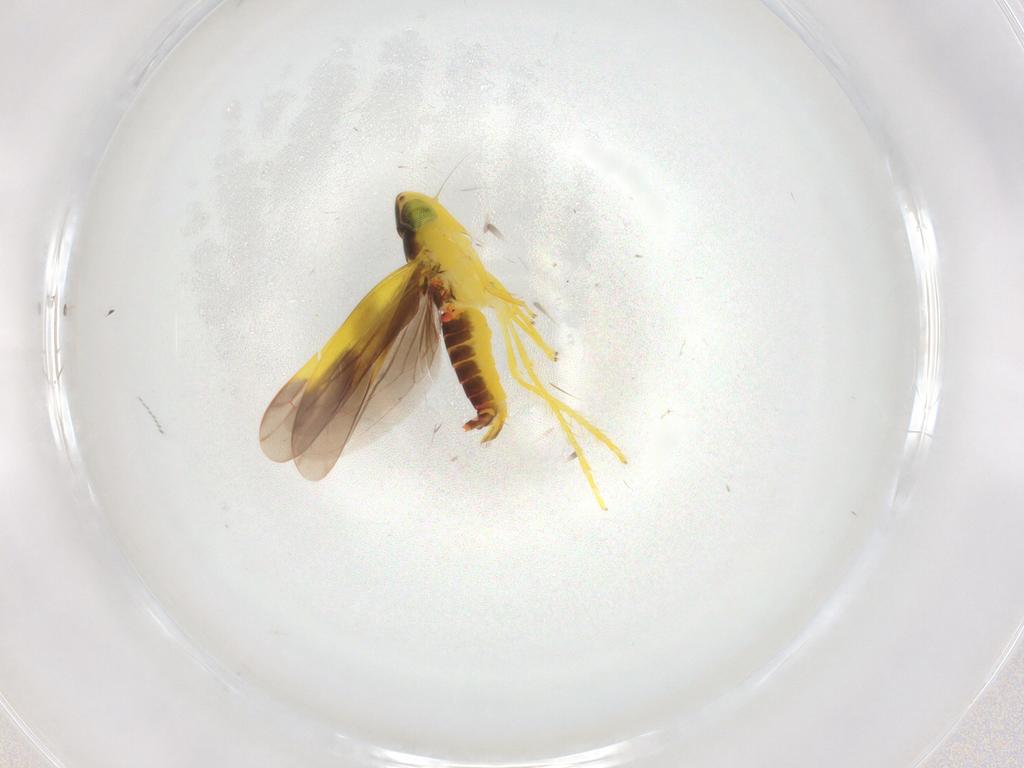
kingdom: Animalia
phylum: Arthropoda
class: Insecta
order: Hemiptera
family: Cicadellidae
